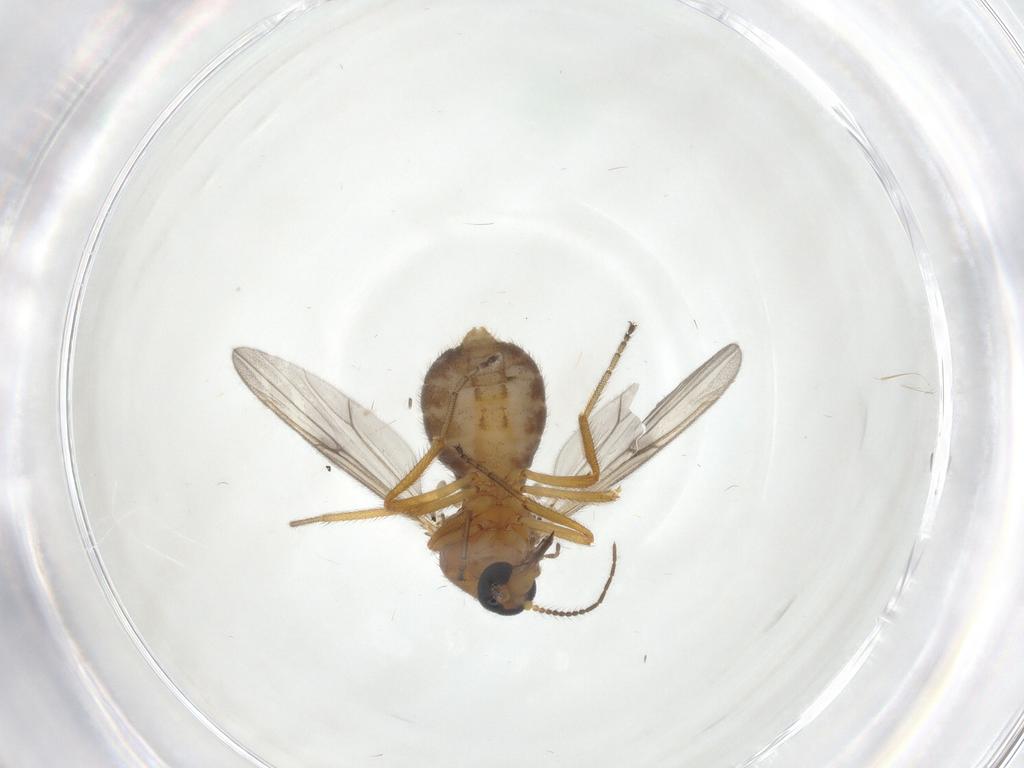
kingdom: Animalia
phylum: Arthropoda
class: Insecta
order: Diptera
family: Ceratopogonidae
